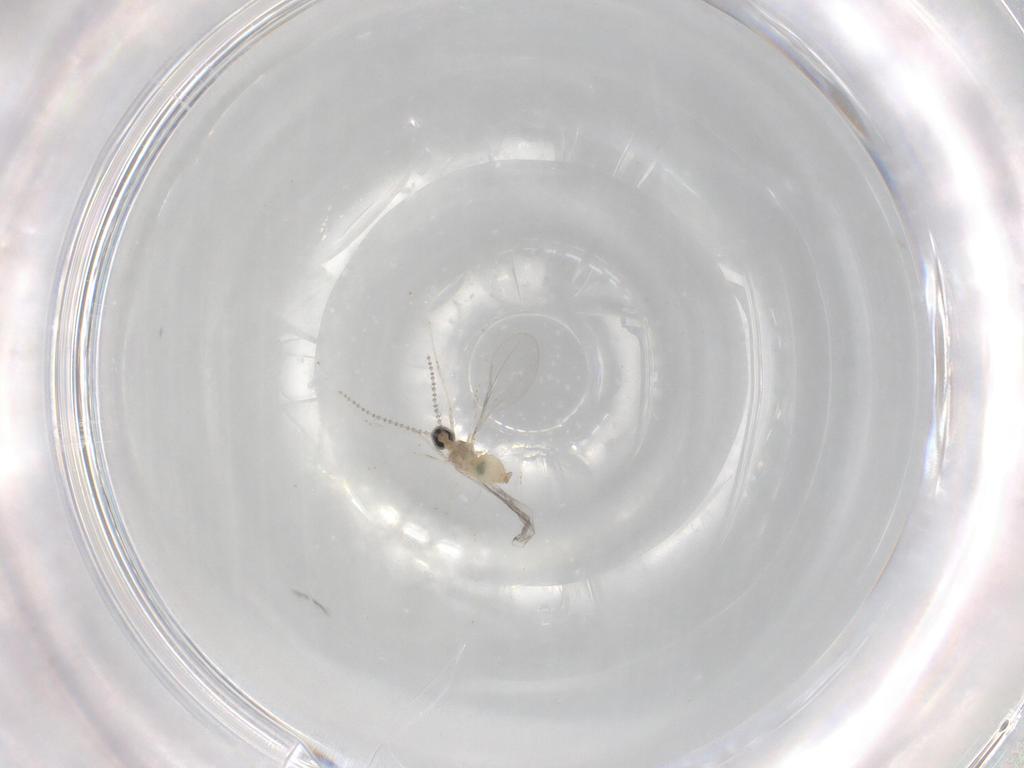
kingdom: Animalia
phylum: Arthropoda
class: Insecta
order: Diptera
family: Cecidomyiidae
